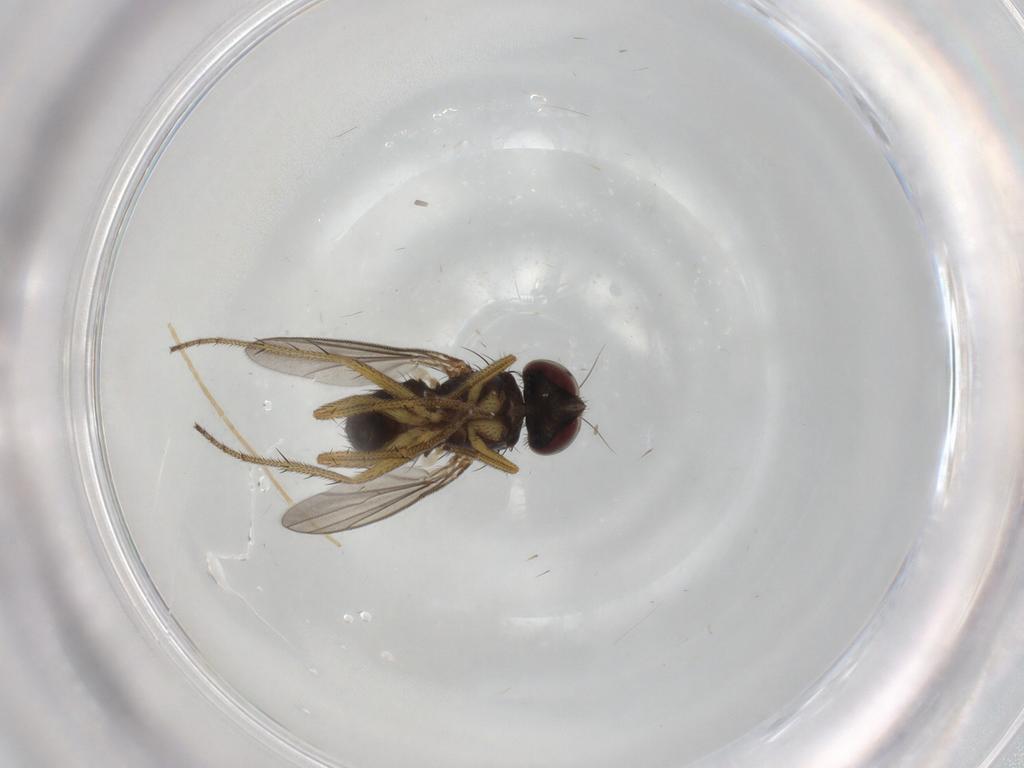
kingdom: Animalia
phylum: Arthropoda
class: Insecta
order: Diptera
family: Dolichopodidae
